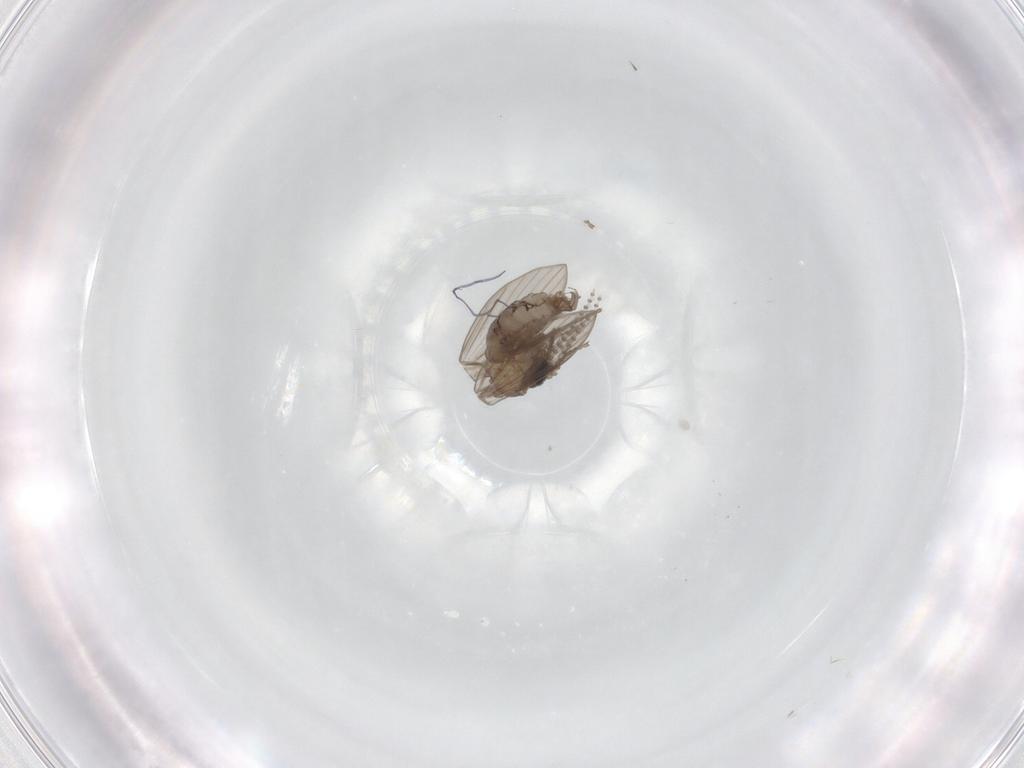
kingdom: Animalia
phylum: Arthropoda
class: Insecta
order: Diptera
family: Psychodidae
